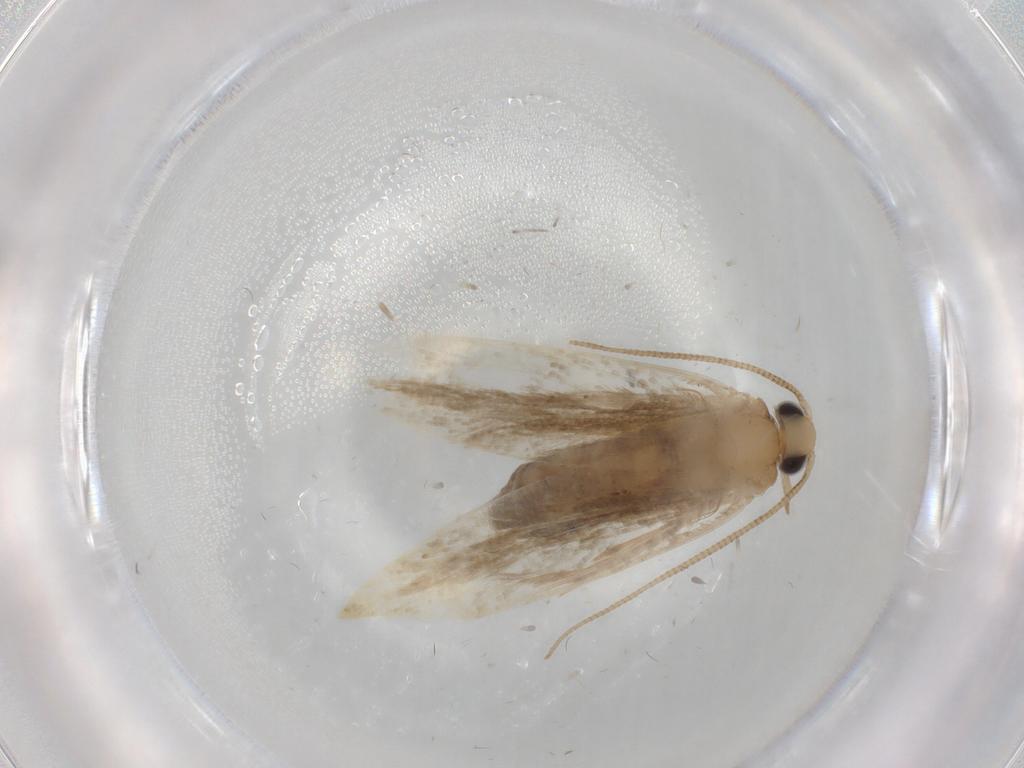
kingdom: Animalia
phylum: Arthropoda
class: Insecta
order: Lepidoptera
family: Tineidae
